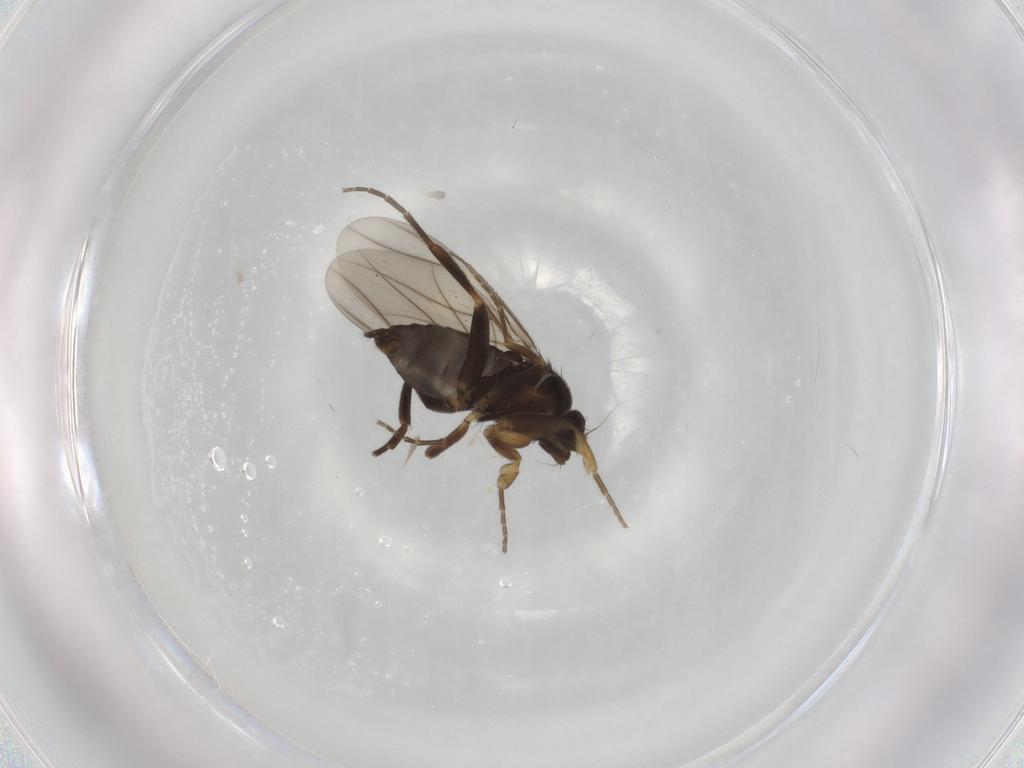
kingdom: Animalia
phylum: Arthropoda
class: Insecta
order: Diptera
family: Phoridae
